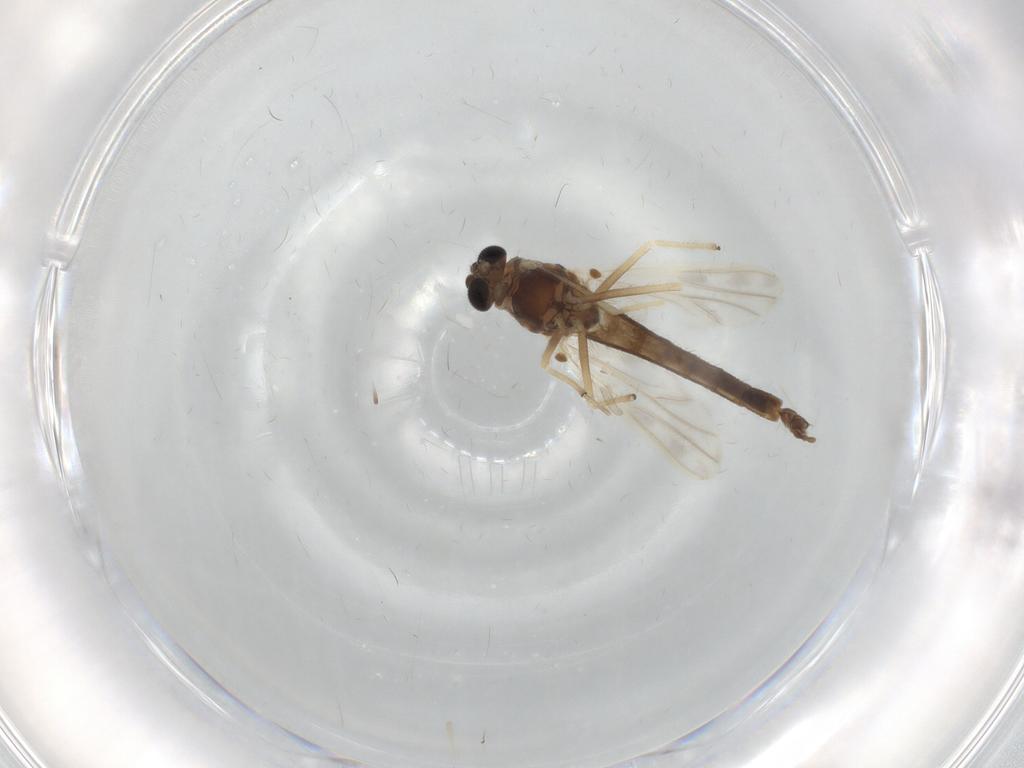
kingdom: Animalia
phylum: Arthropoda
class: Insecta
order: Diptera
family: Chironomidae
